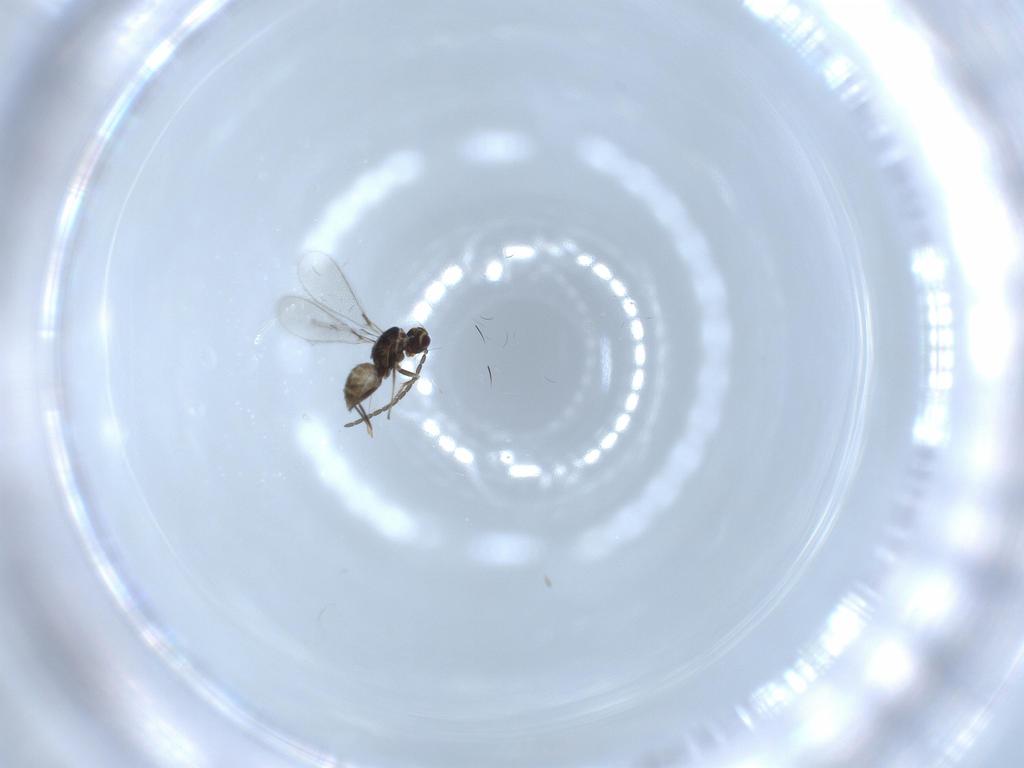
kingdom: Animalia
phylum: Arthropoda
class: Insecta
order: Hymenoptera
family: Mymaridae
